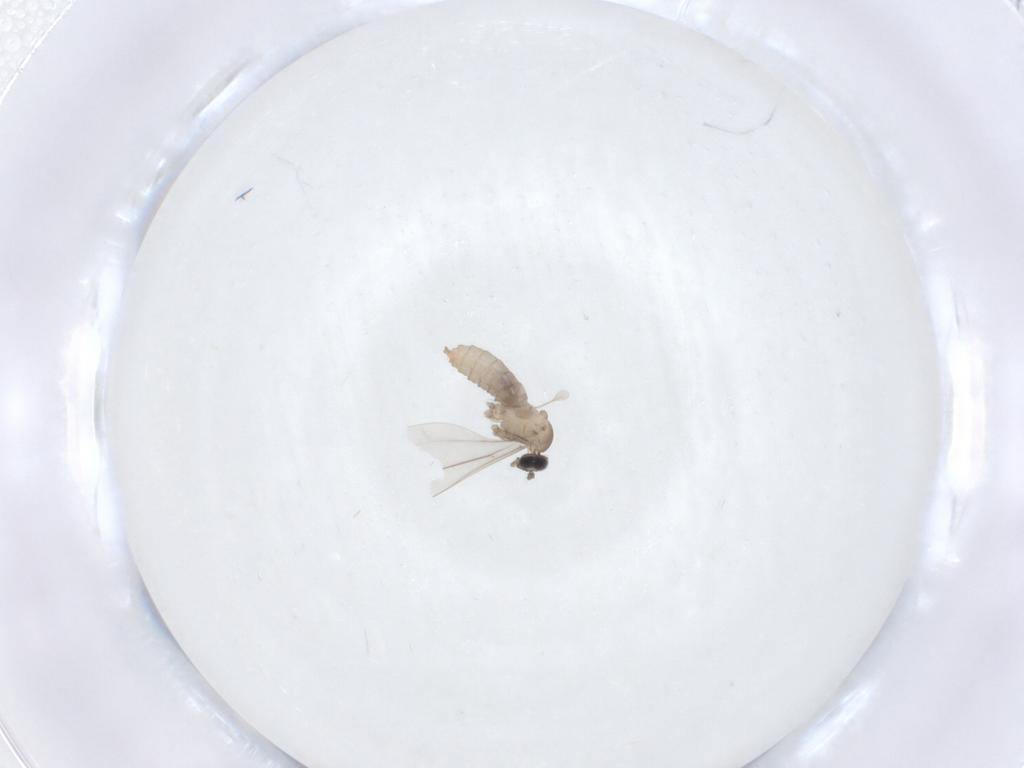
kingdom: Animalia
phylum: Arthropoda
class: Insecta
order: Diptera
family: Cecidomyiidae
